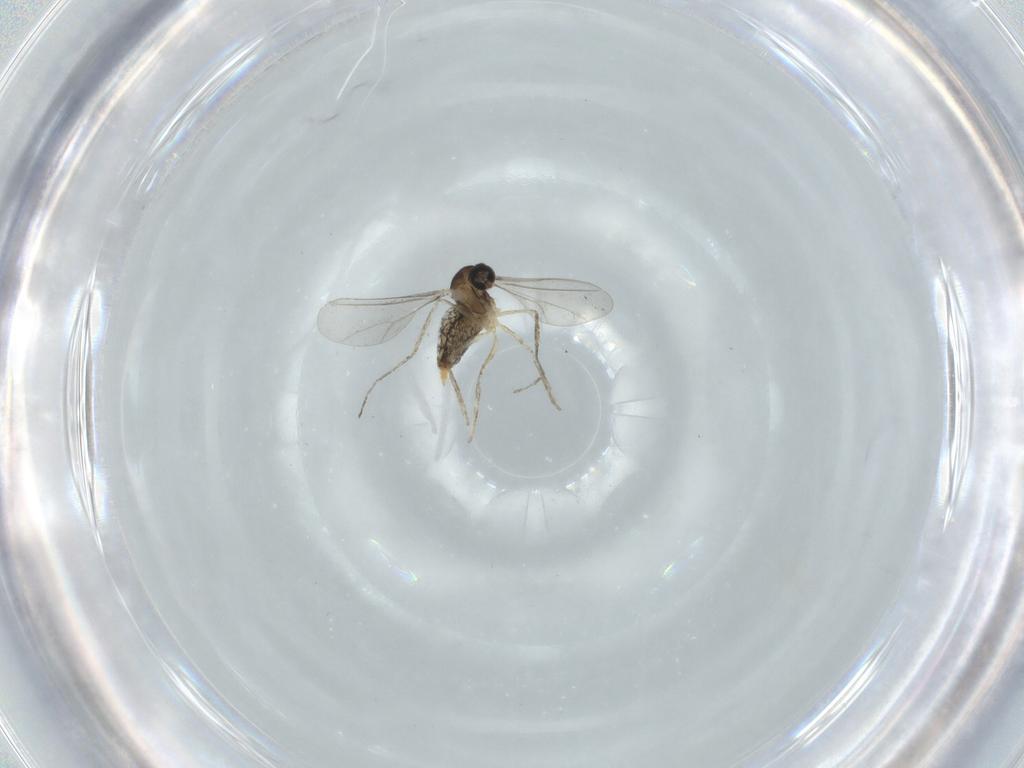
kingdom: Animalia
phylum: Arthropoda
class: Insecta
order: Diptera
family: Cecidomyiidae
